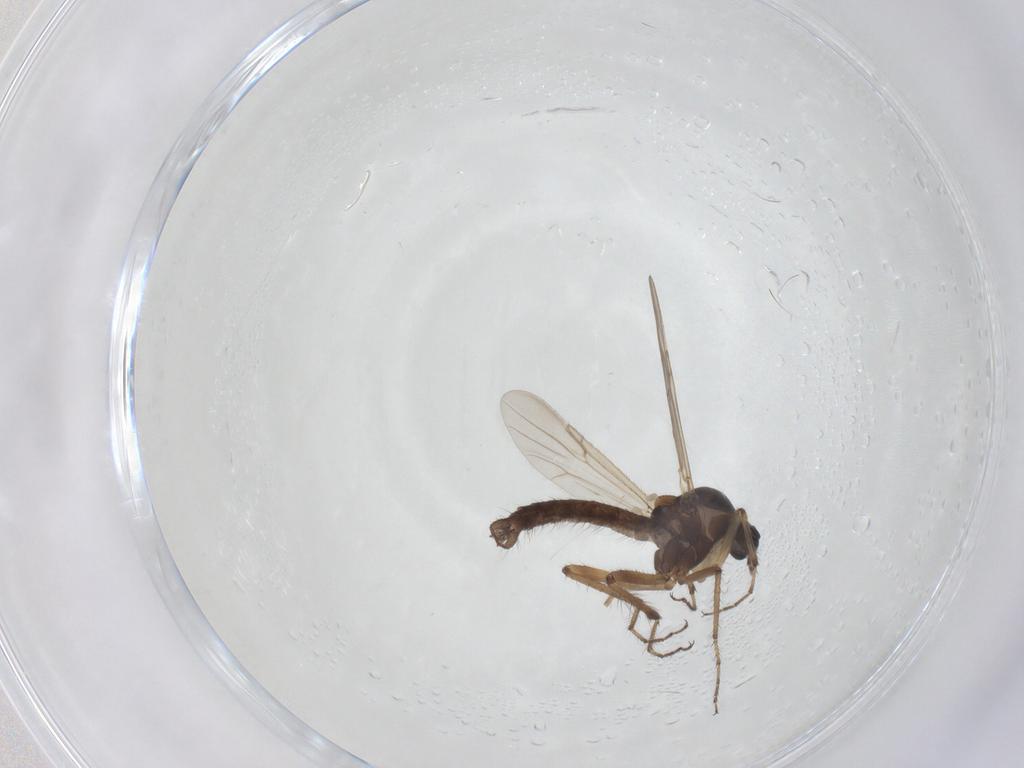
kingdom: Animalia
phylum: Arthropoda
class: Insecta
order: Diptera
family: Ceratopogonidae
